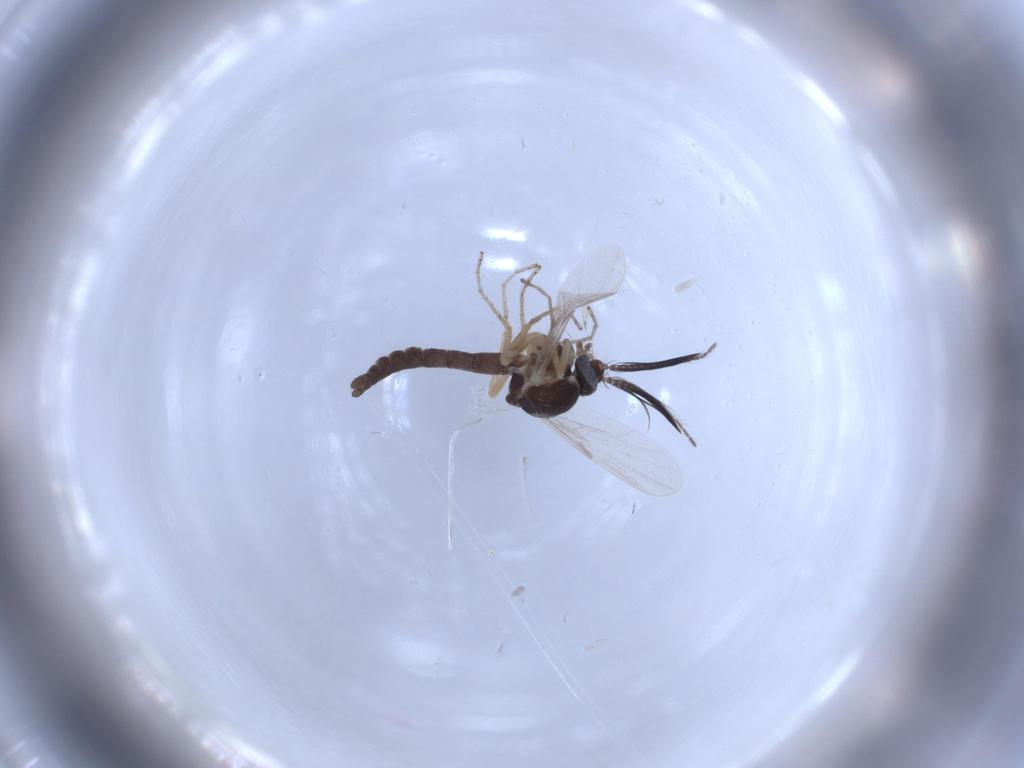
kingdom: Animalia
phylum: Arthropoda
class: Insecta
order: Diptera
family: Ceratopogonidae
